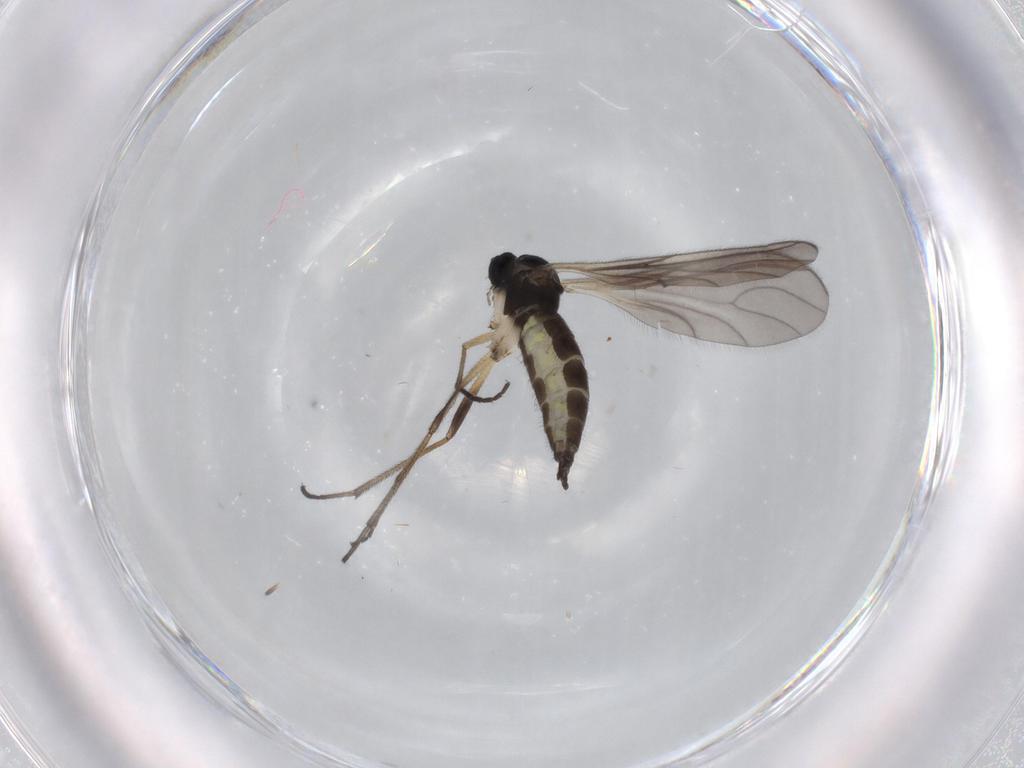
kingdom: Animalia
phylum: Arthropoda
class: Insecta
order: Diptera
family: Sciaridae
